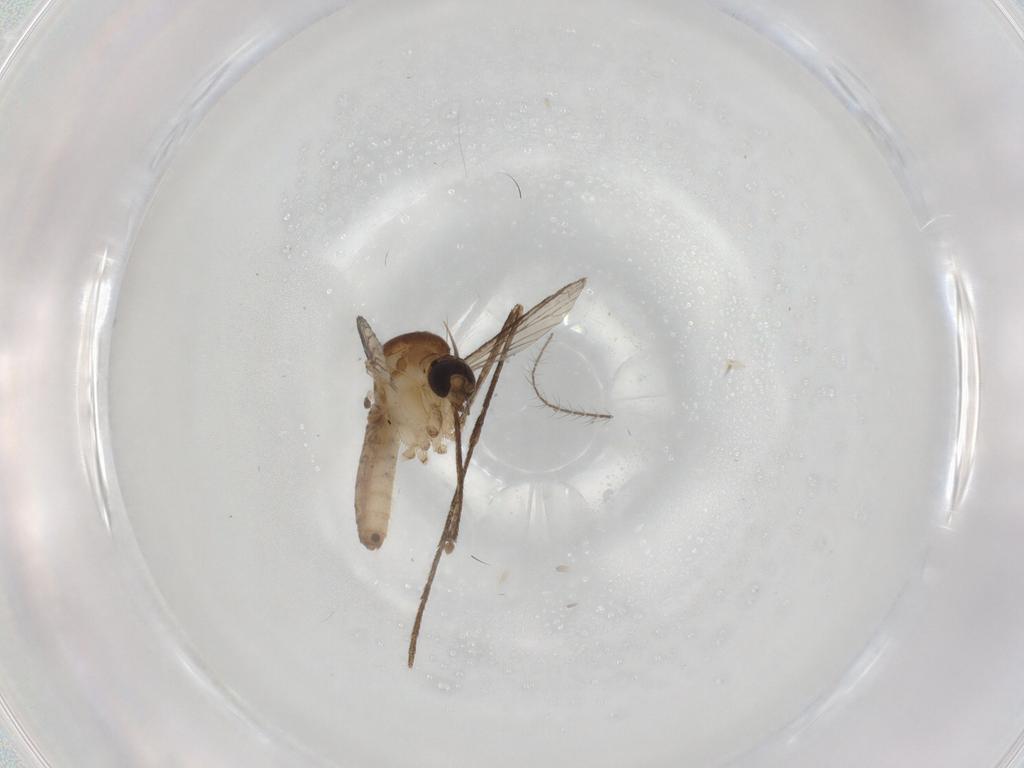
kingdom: Animalia
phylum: Arthropoda
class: Insecta
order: Diptera
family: Culicidae
